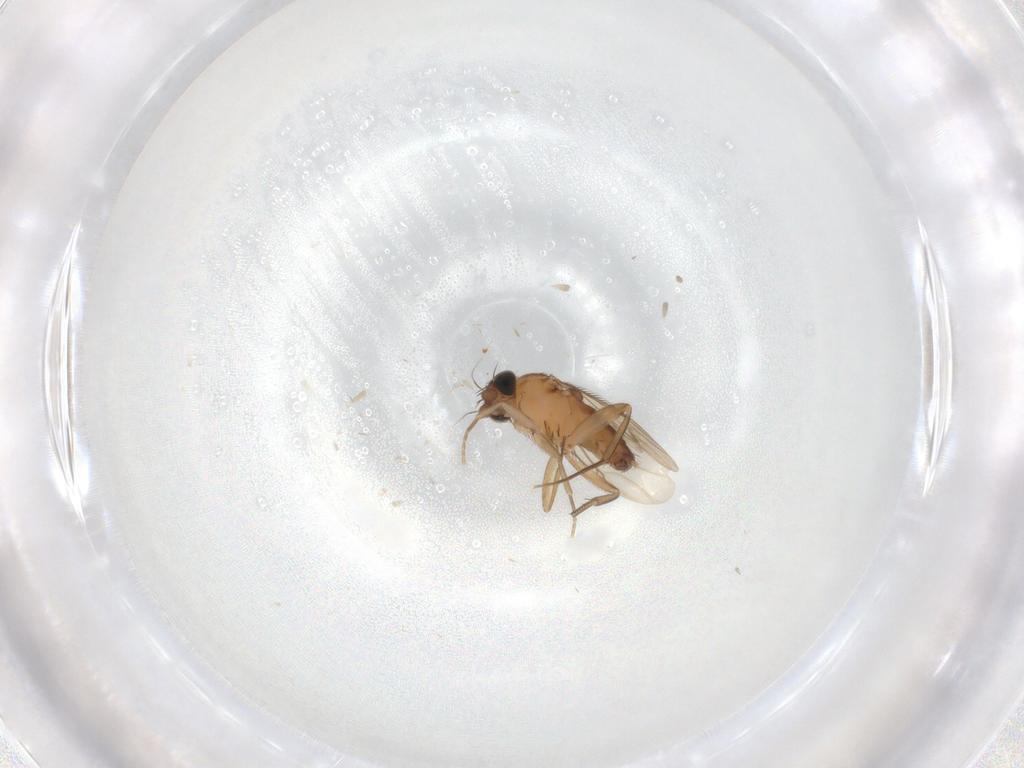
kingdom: Animalia
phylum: Arthropoda
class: Insecta
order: Diptera
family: Phoridae
